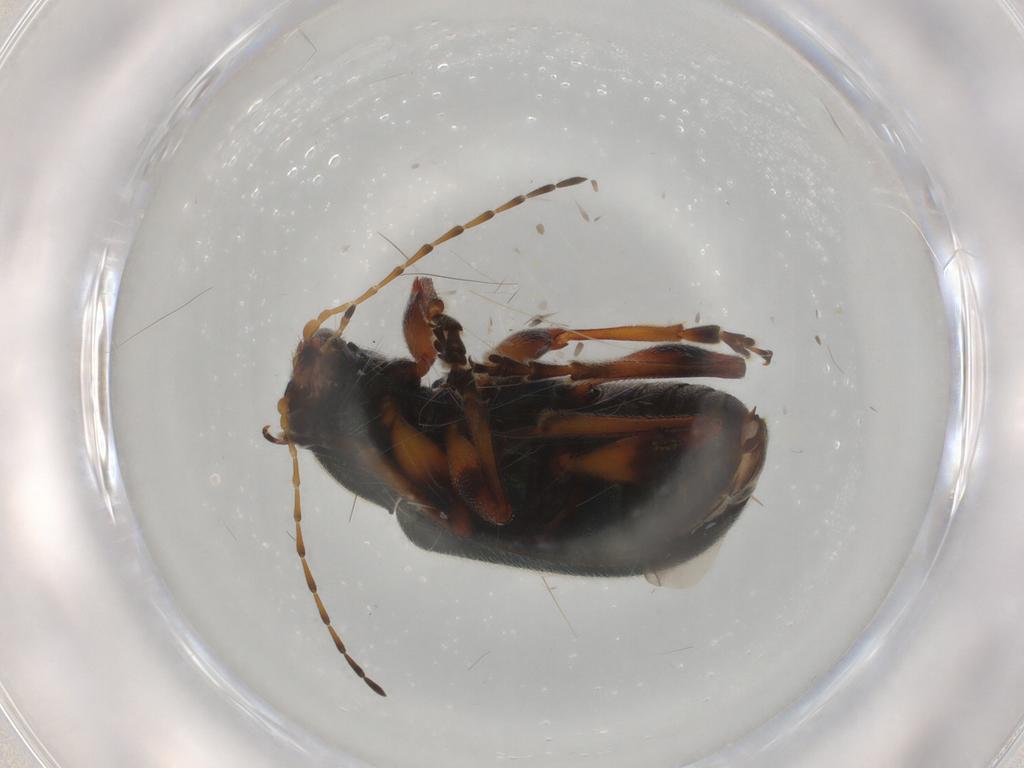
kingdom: Animalia
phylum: Arthropoda
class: Insecta
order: Coleoptera
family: Chrysomelidae
